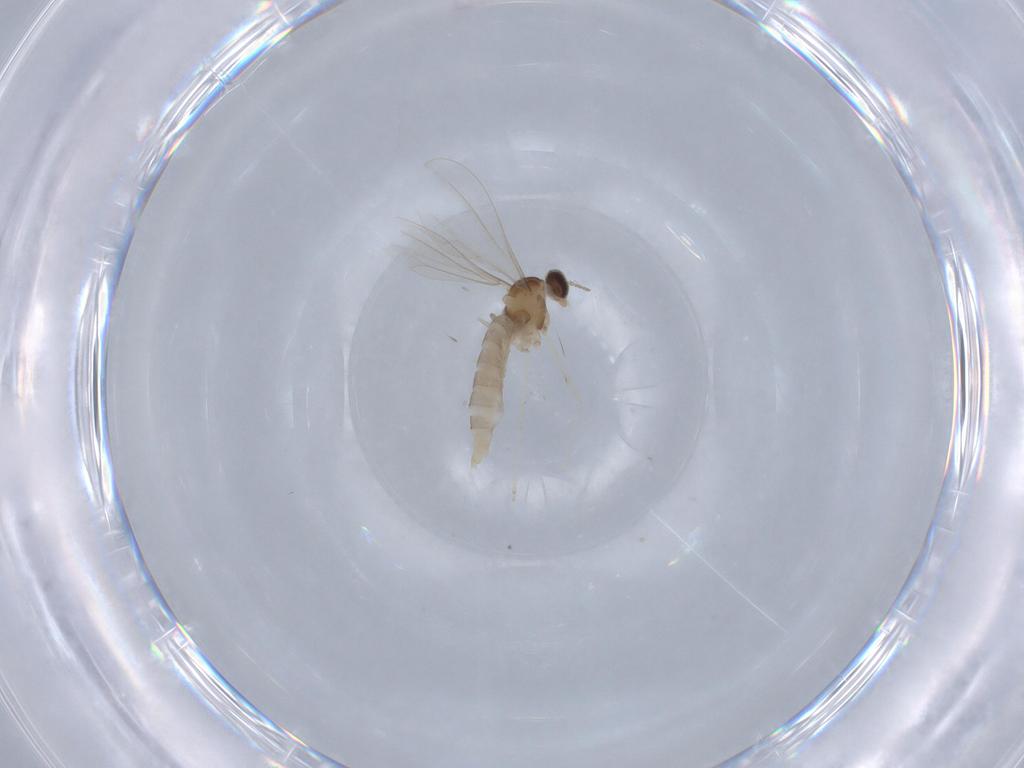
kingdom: Animalia
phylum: Arthropoda
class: Insecta
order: Diptera
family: Cecidomyiidae
